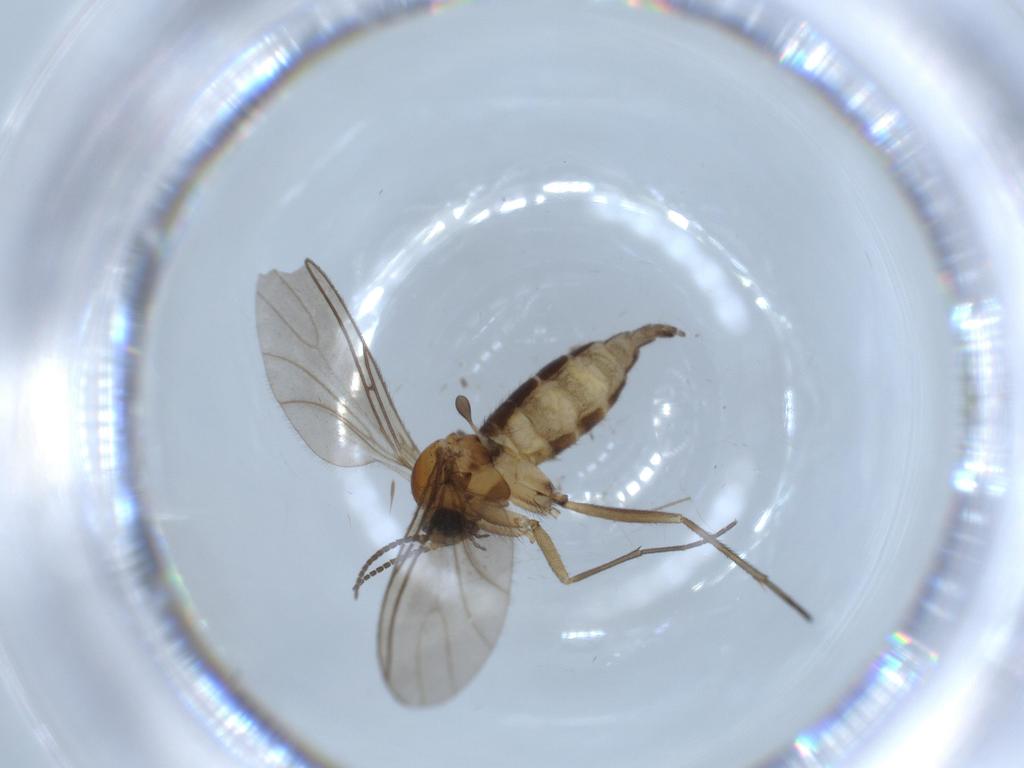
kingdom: Animalia
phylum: Arthropoda
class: Insecta
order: Diptera
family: Sciaridae
